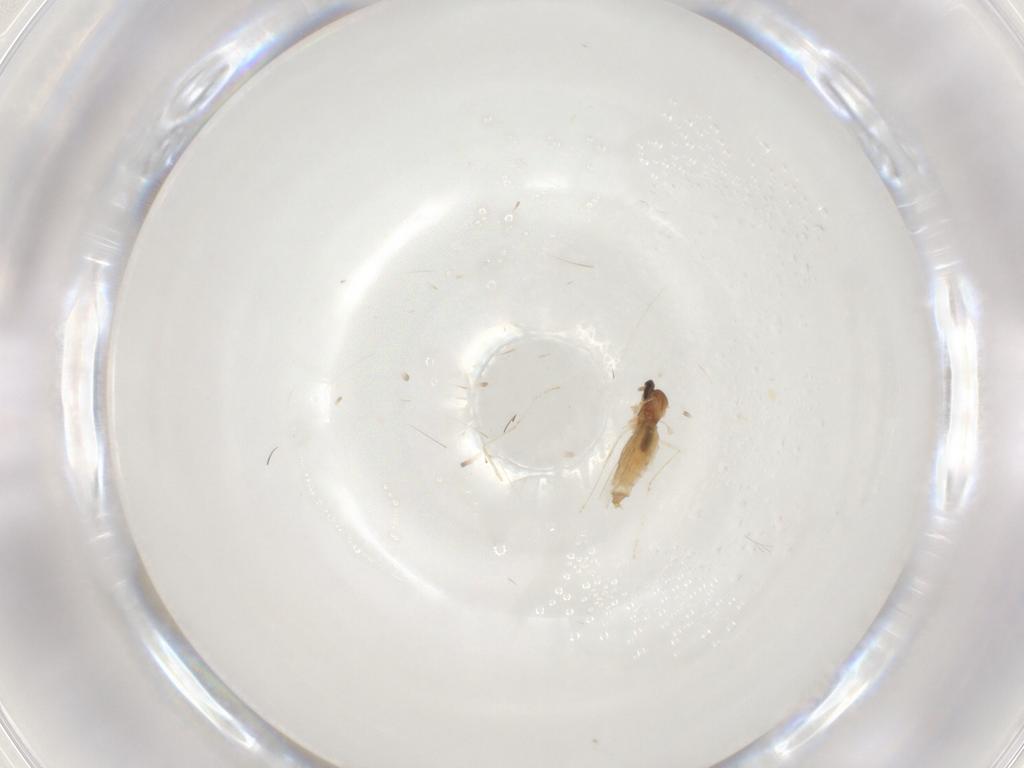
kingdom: Animalia
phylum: Arthropoda
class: Insecta
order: Diptera
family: Cecidomyiidae
